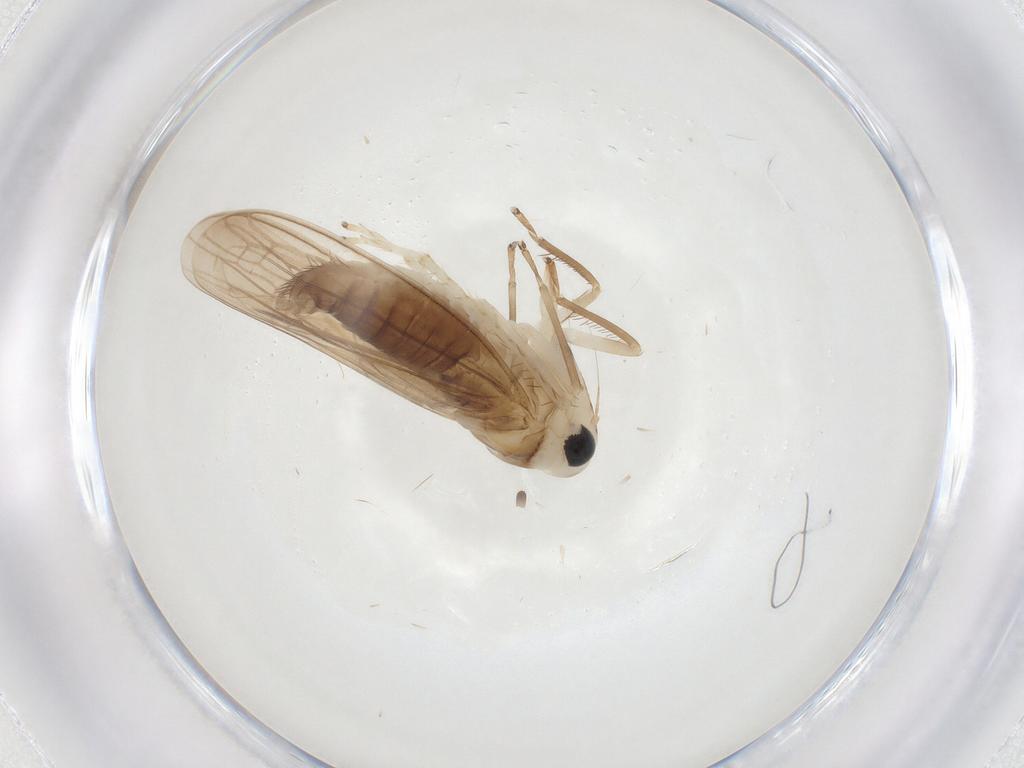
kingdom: Animalia
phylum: Arthropoda
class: Insecta
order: Hemiptera
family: Cicadellidae
